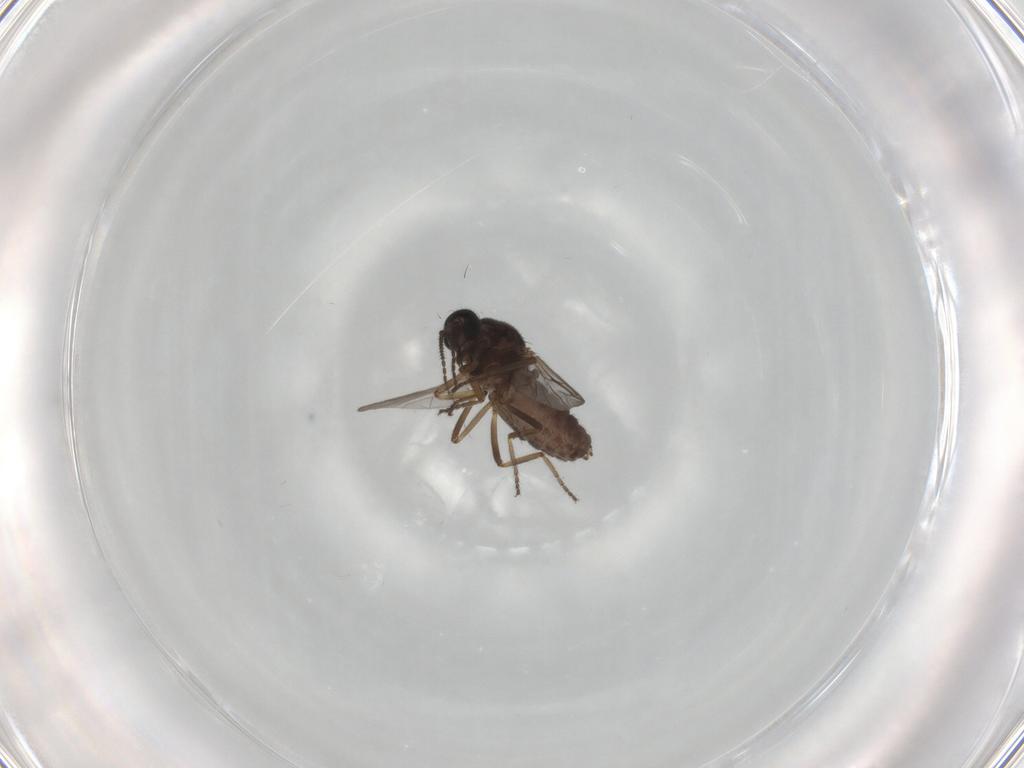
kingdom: Animalia
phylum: Arthropoda
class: Insecta
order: Diptera
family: Ceratopogonidae
